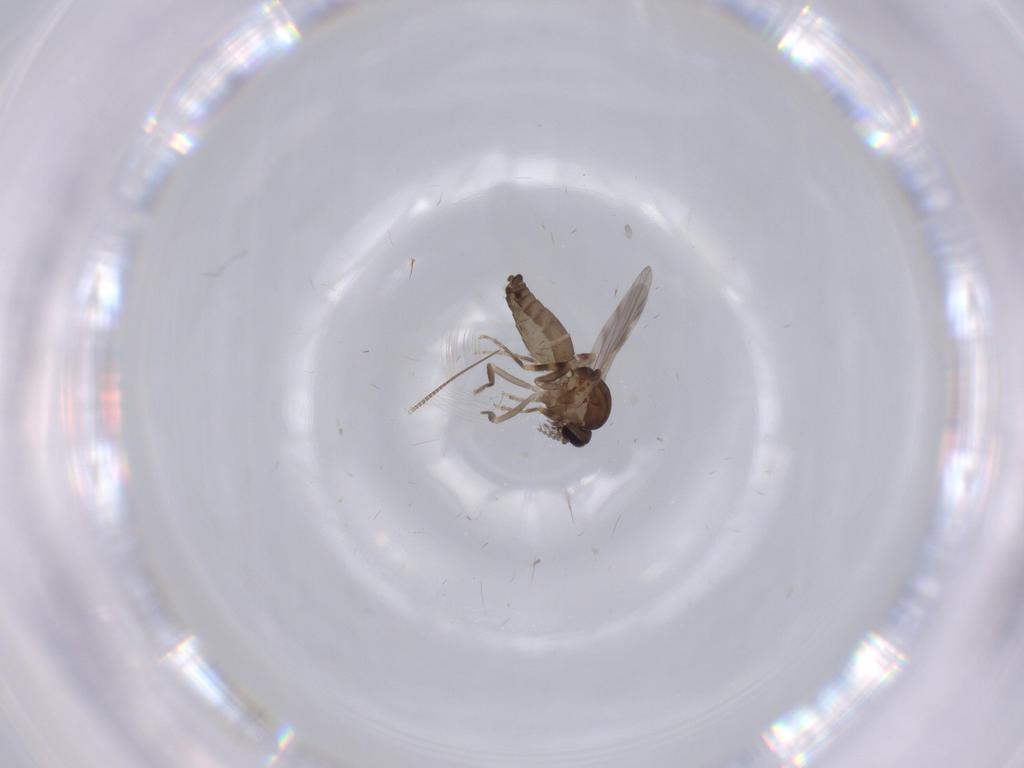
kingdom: Animalia
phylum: Arthropoda
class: Insecta
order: Diptera
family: Ceratopogonidae
